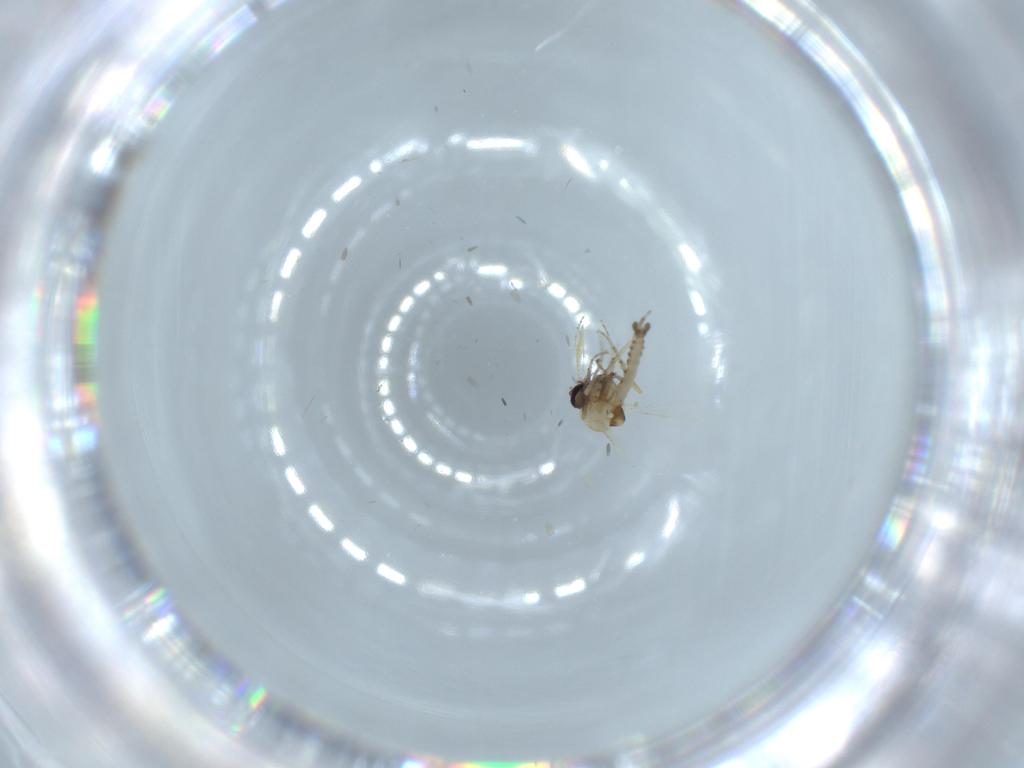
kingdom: Animalia
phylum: Arthropoda
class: Insecta
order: Diptera
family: Ceratopogonidae
